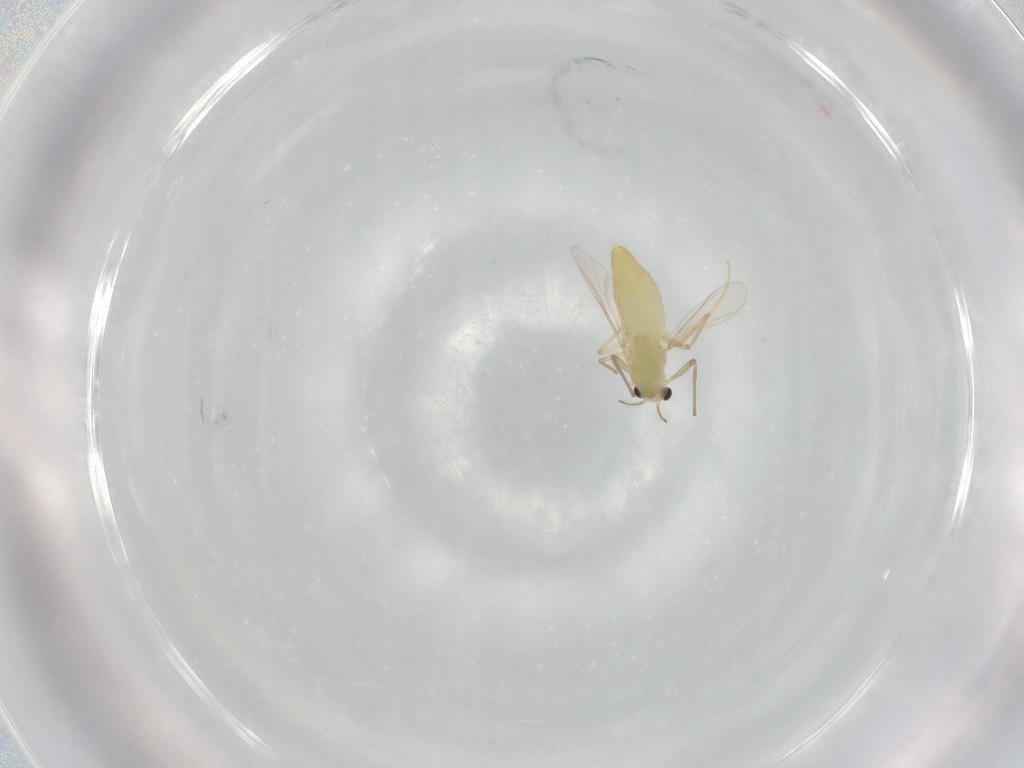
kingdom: Animalia
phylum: Arthropoda
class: Insecta
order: Diptera
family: Chironomidae
